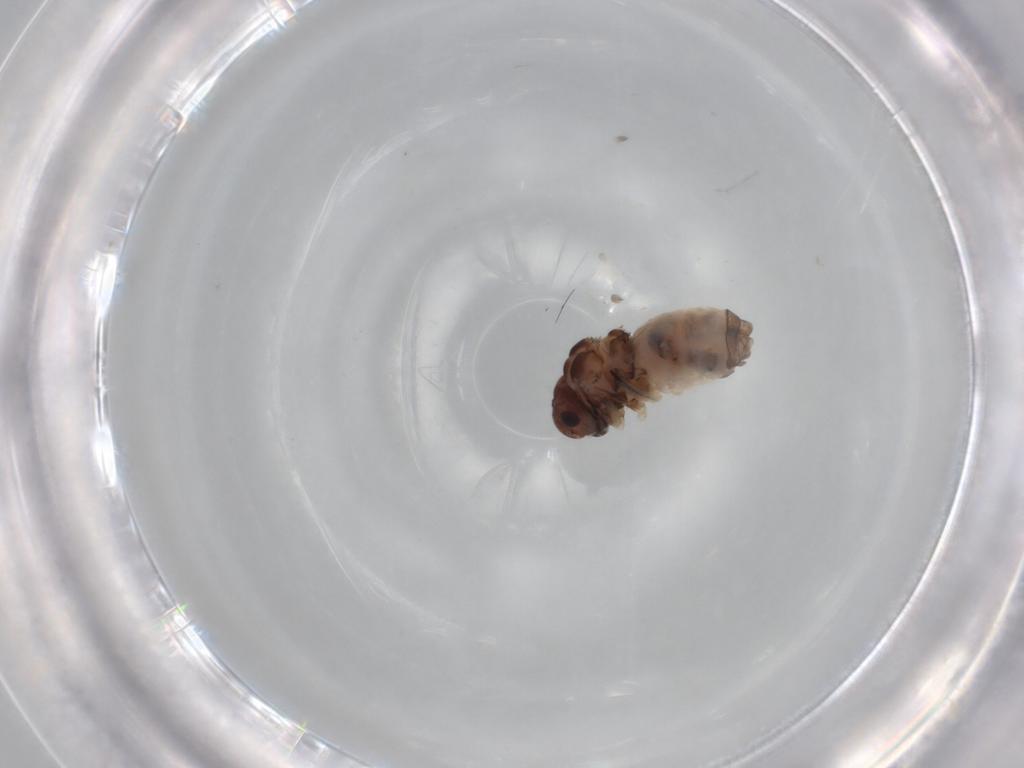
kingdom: Animalia
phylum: Arthropoda
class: Insecta
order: Psocodea
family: Peripsocidae
